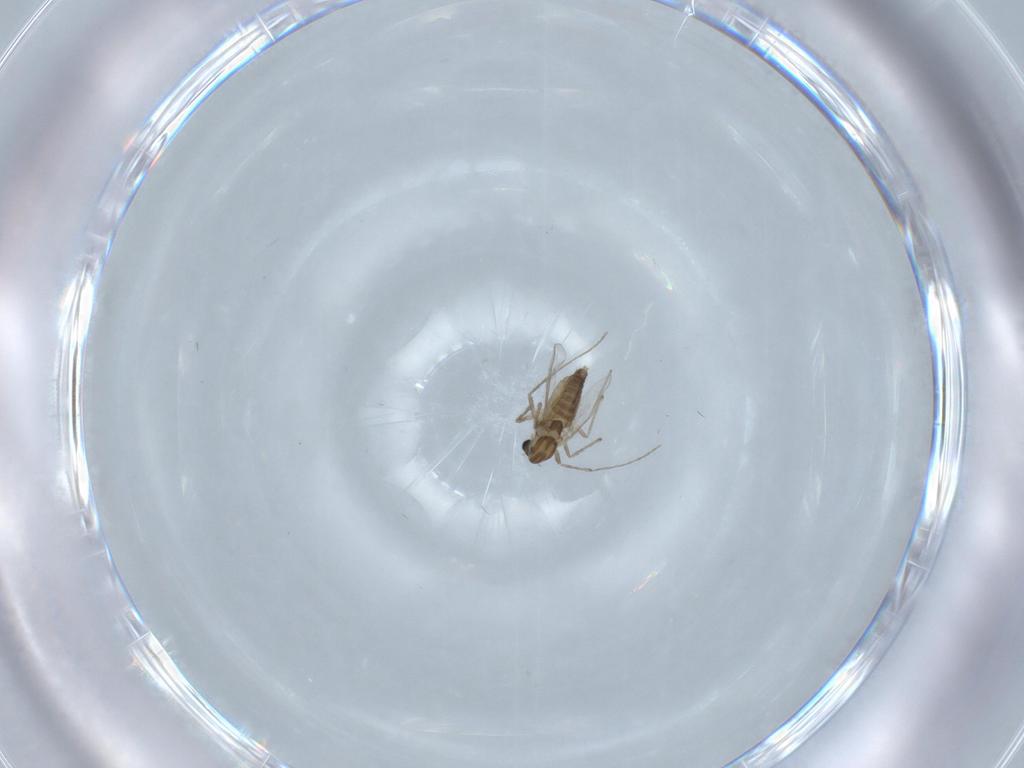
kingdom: Animalia
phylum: Arthropoda
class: Insecta
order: Diptera
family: Chironomidae
